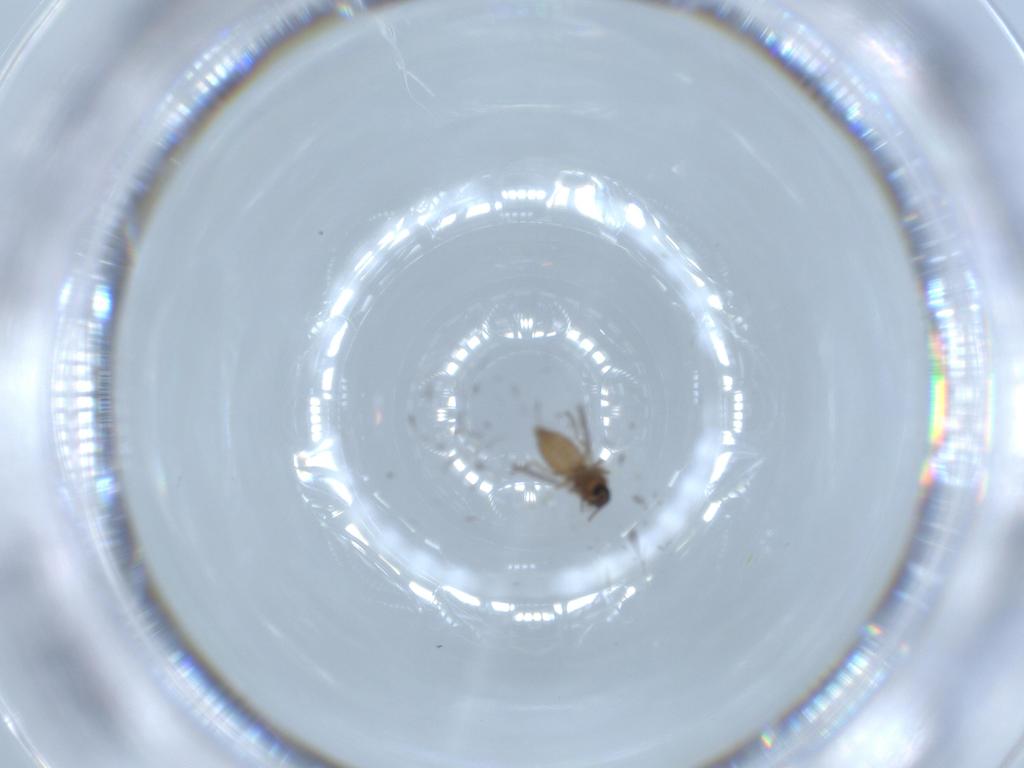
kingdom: Animalia
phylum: Arthropoda
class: Insecta
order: Diptera
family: Ceratopogonidae
